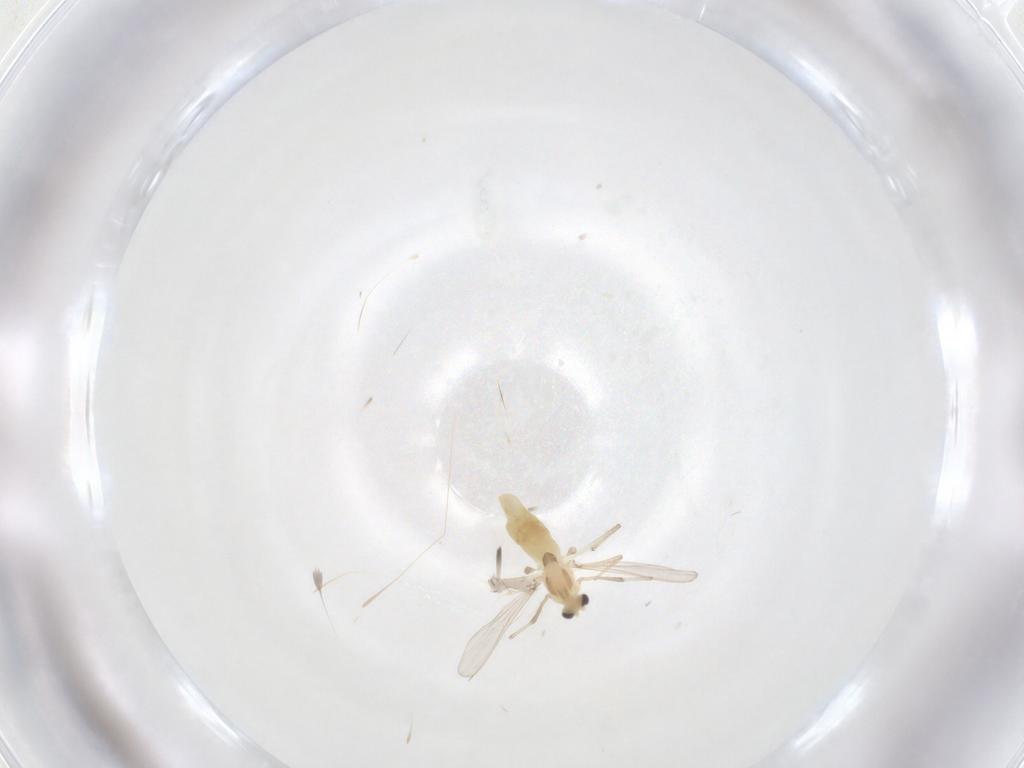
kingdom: Animalia
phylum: Arthropoda
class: Insecta
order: Diptera
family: Chironomidae
